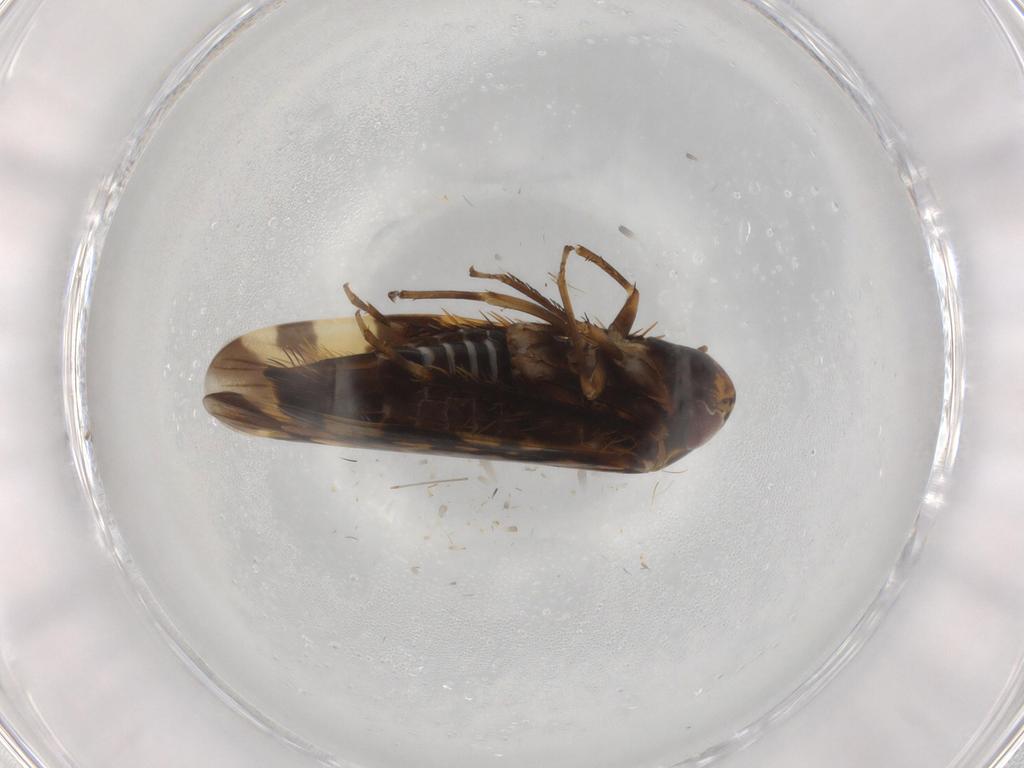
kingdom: Animalia
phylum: Arthropoda
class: Insecta
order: Hemiptera
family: Cicadellidae
